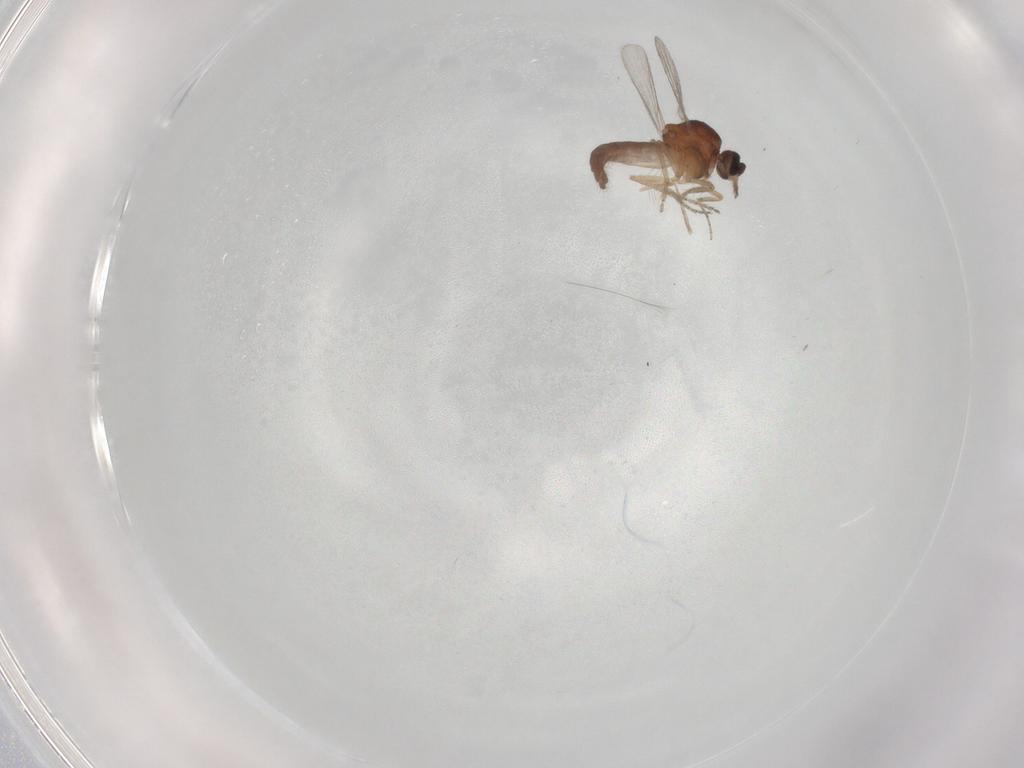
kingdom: Animalia
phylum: Arthropoda
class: Insecta
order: Diptera
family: Ceratopogonidae
